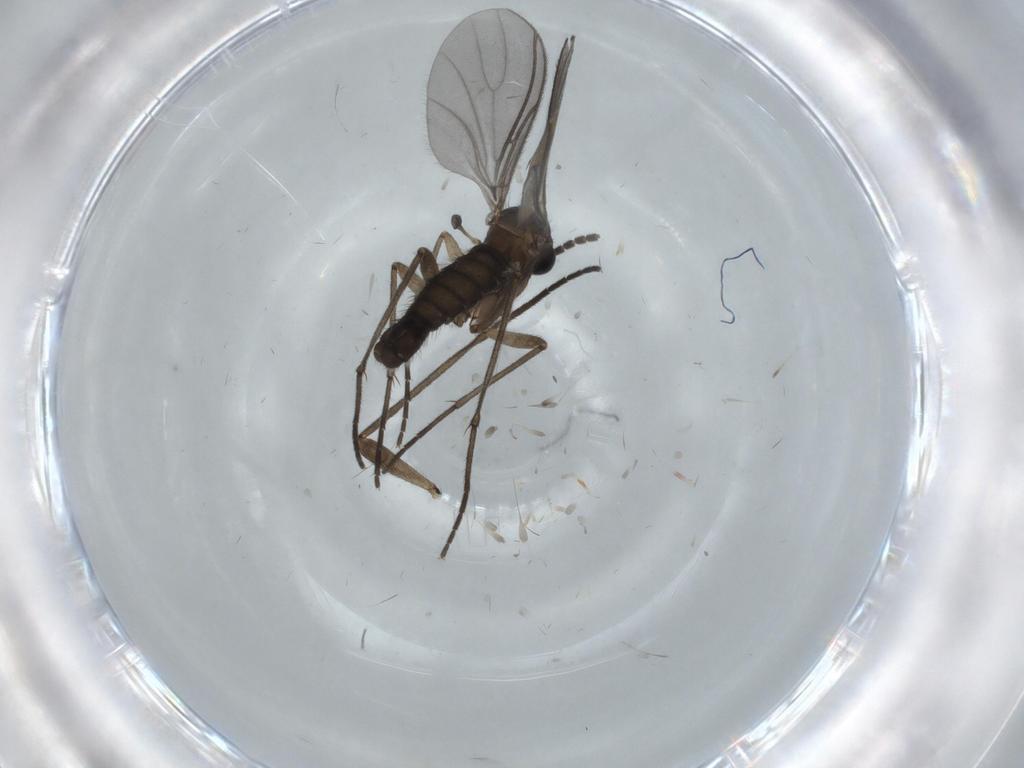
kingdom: Animalia
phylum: Arthropoda
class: Insecta
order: Diptera
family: Sciaridae
